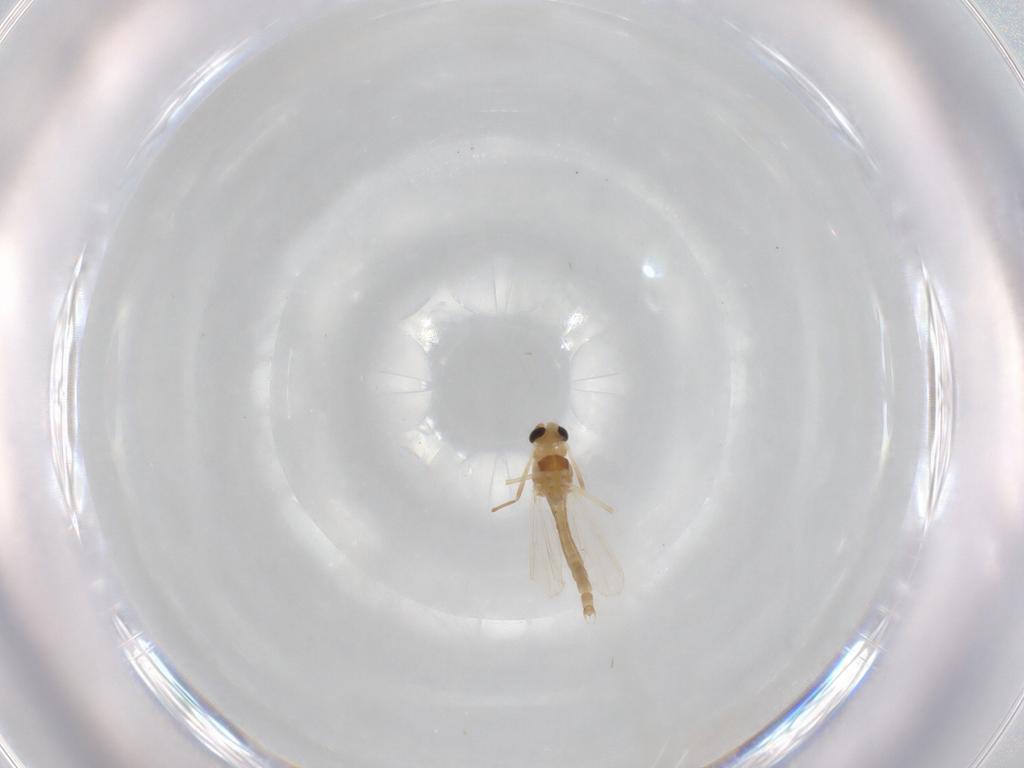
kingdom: Animalia
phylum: Arthropoda
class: Insecta
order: Diptera
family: Chironomidae
